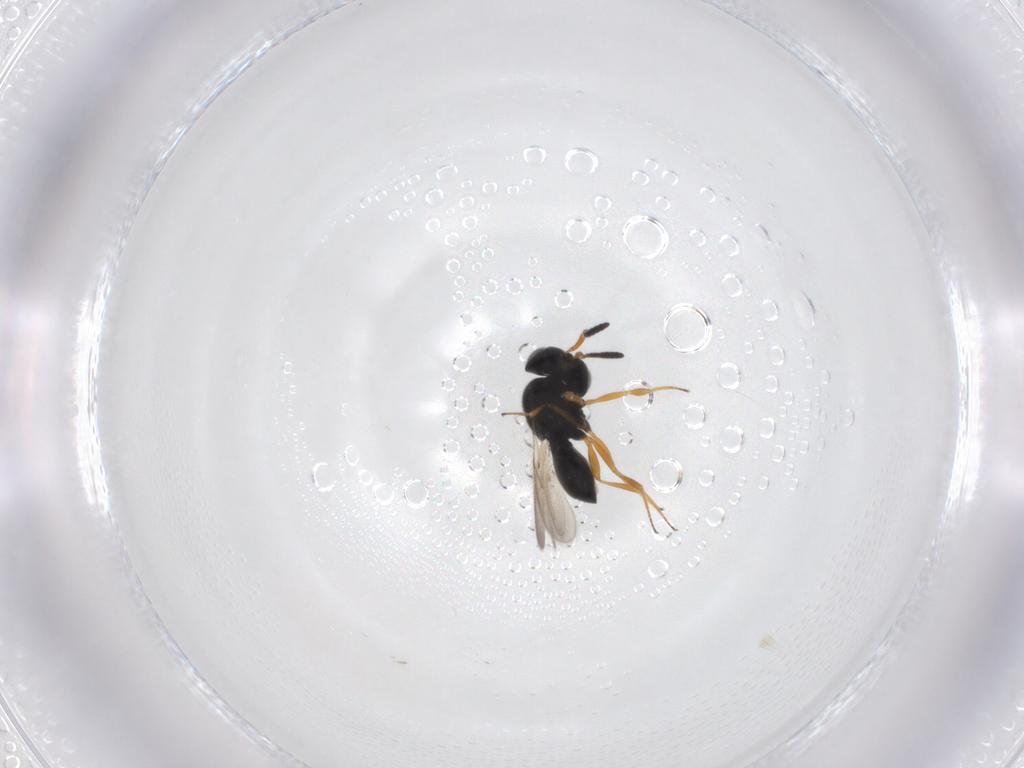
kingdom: Animalia
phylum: Arthropoda
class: Insecta
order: Hymenoptera
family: Scelionidae
